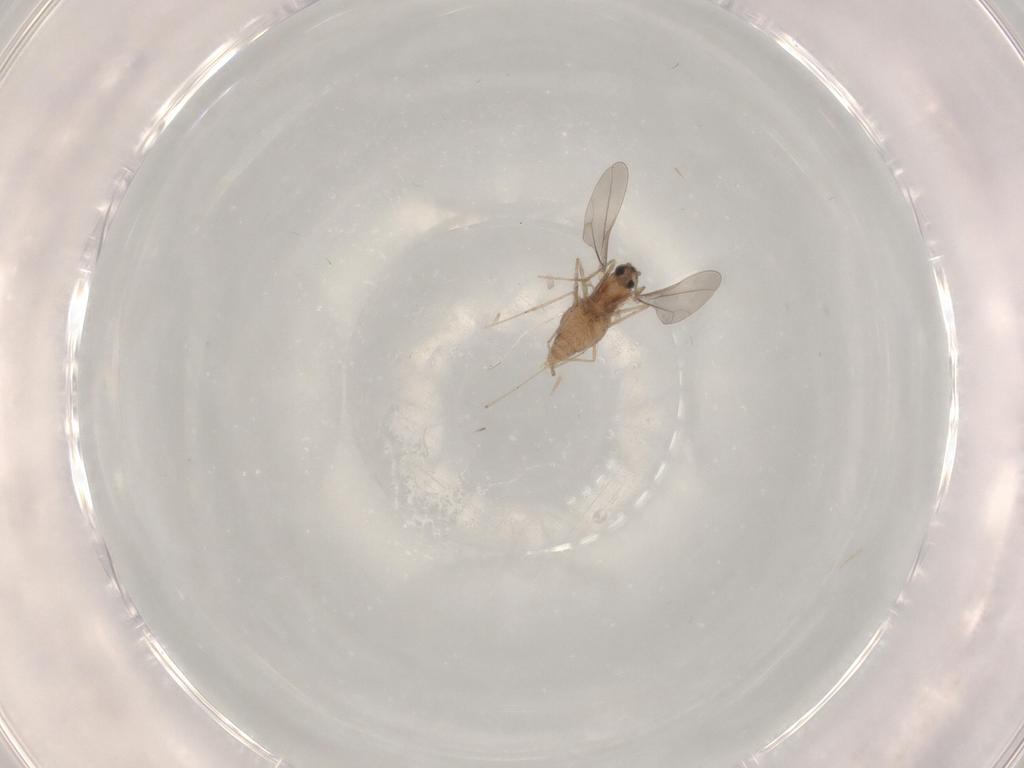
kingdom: Animalia
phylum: Arthropoda
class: Insecta
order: Diptera
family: Cecidomyiidae
